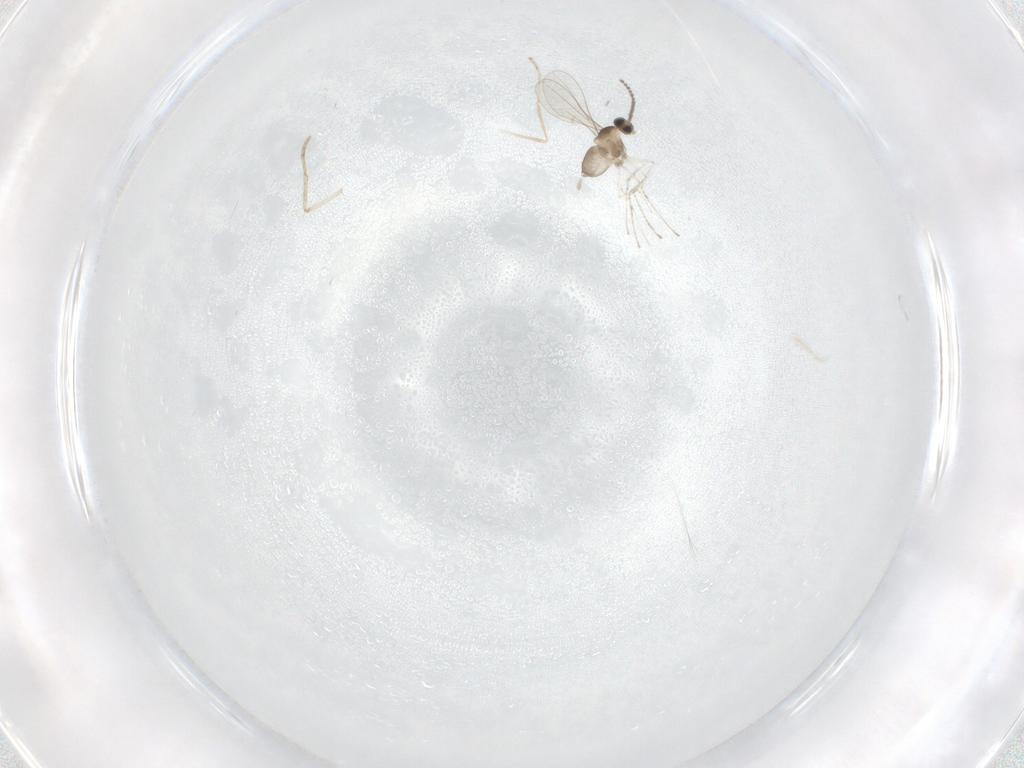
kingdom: Animalia
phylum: Arthropoda
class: Insecta
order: Diptera
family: Cecidomyiidae
